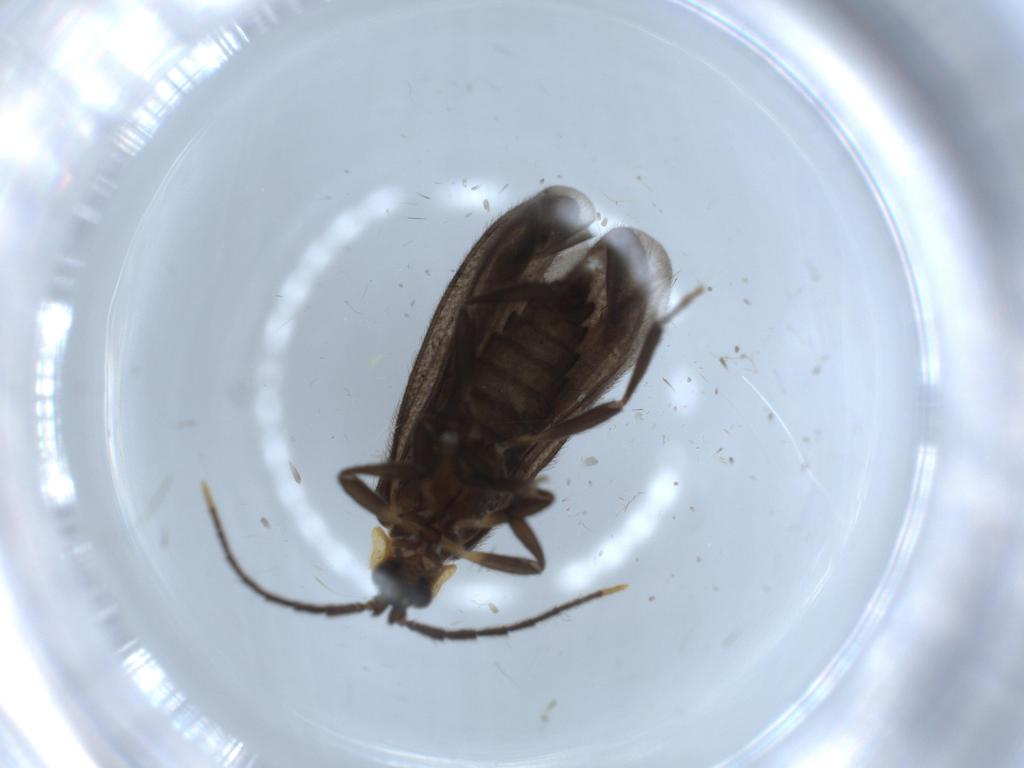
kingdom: Animalia
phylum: Arthropoda
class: Insecta
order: Coleoptera
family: Lycidae
